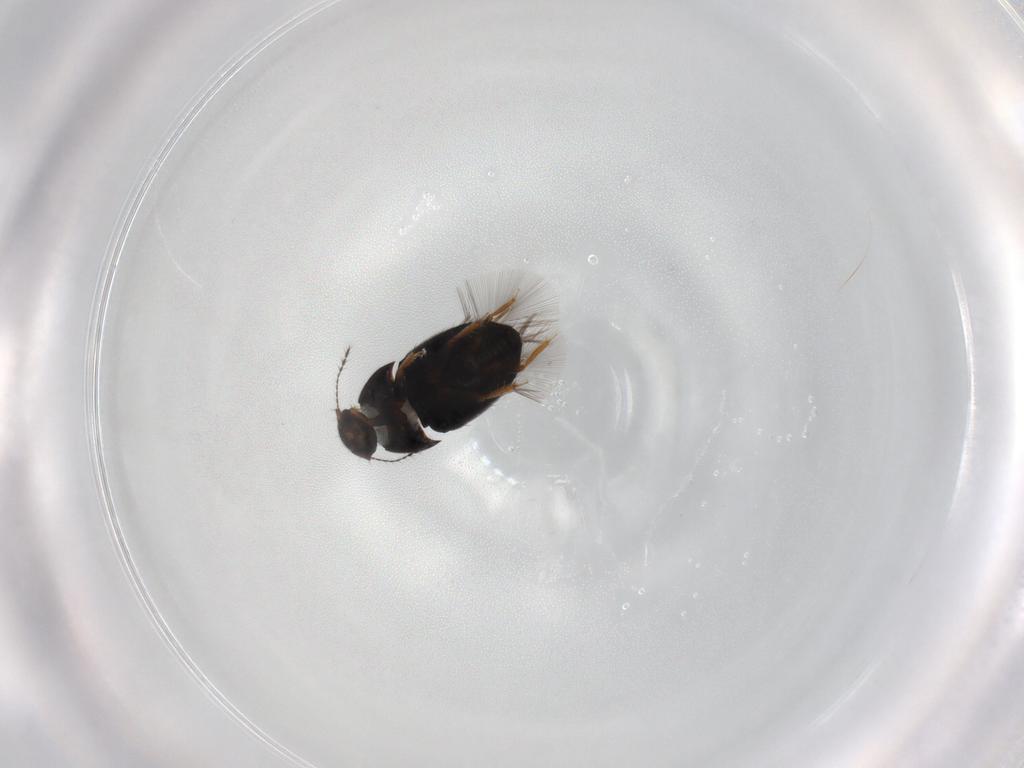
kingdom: Animalia
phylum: Arthropoda
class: Insecta
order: Coleoptera
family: Ptiliidae
